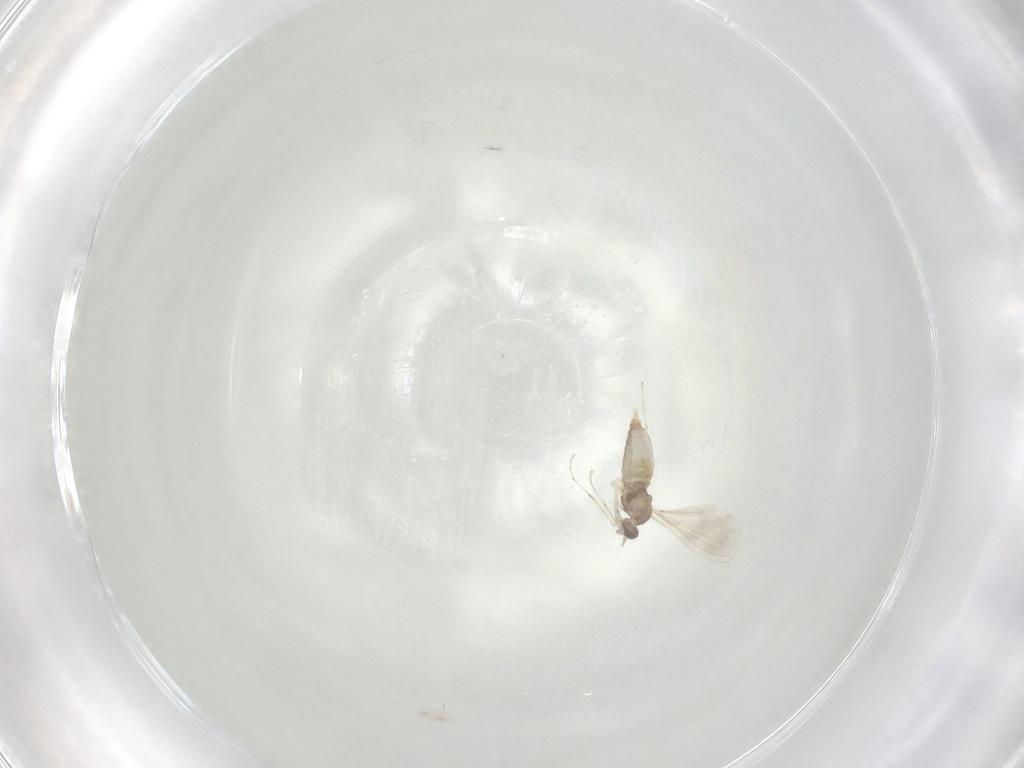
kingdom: Animalia
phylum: Arthropoda
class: Insecta
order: Diptera
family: Cecidomyiidae
